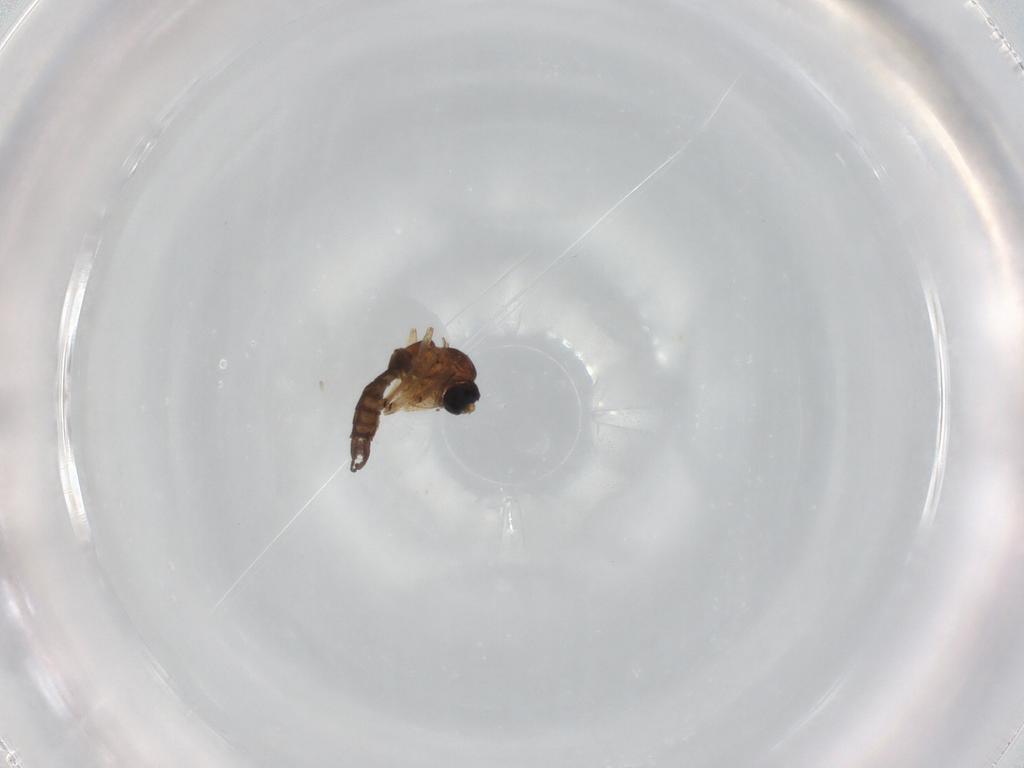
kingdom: Animalia
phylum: Arthropoda
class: Insecta
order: Diptera
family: Sciaridae
